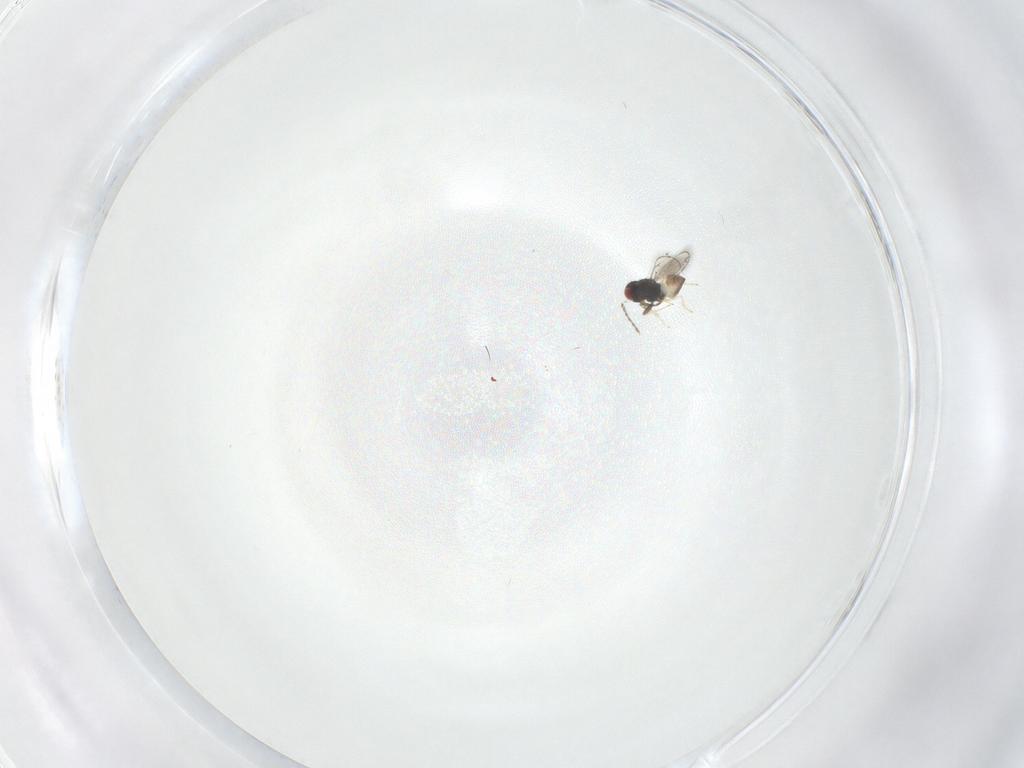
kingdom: Animalia
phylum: Arthropoda
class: Insecta
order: Hymenoptera
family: Eulophidae
